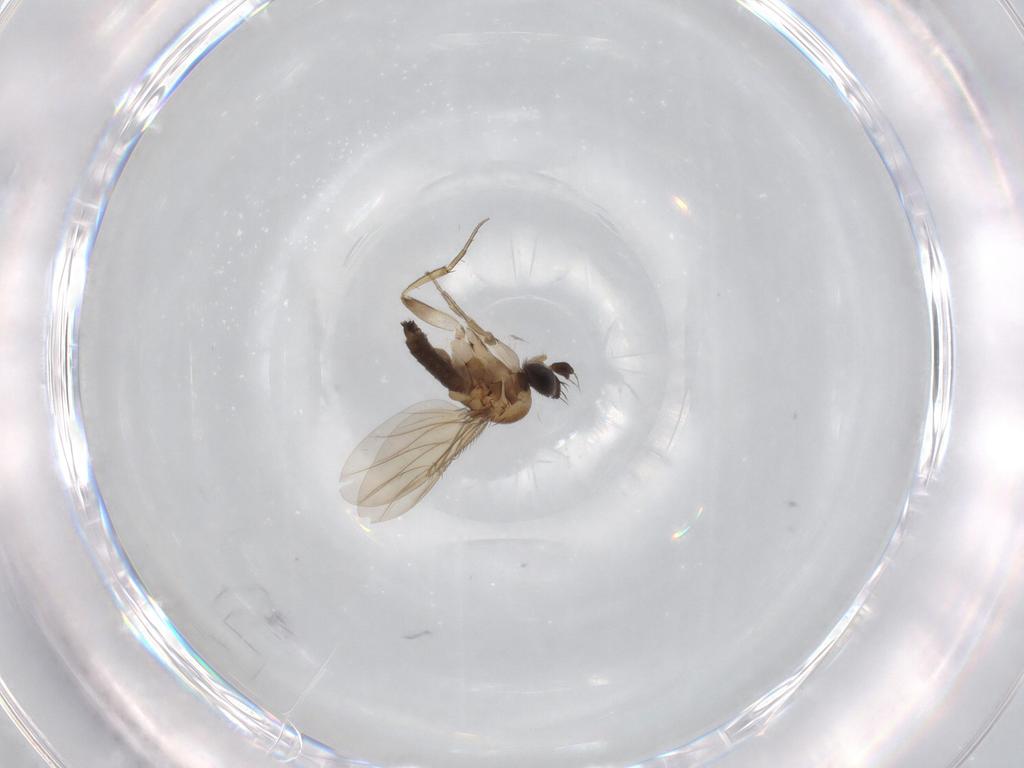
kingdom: Animalia
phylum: Arthropoda
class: Insecta
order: Diptera
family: Phoridae
